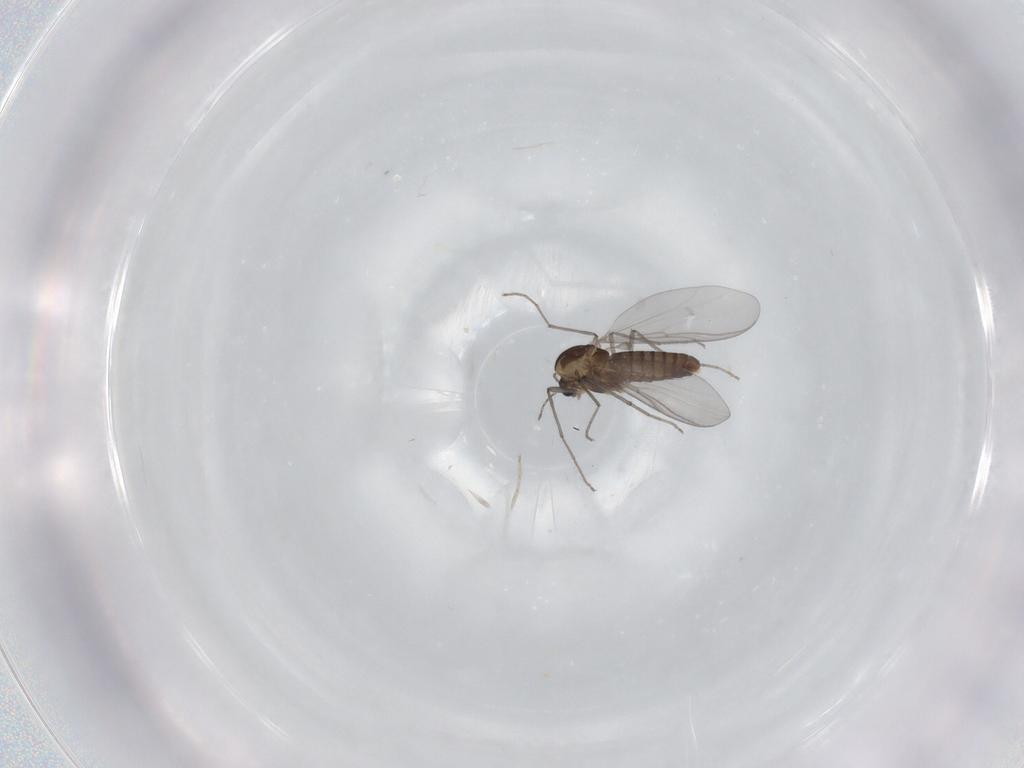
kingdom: Animalia
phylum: Arthropoda
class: Insecta
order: Diptera
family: Chironomidae
